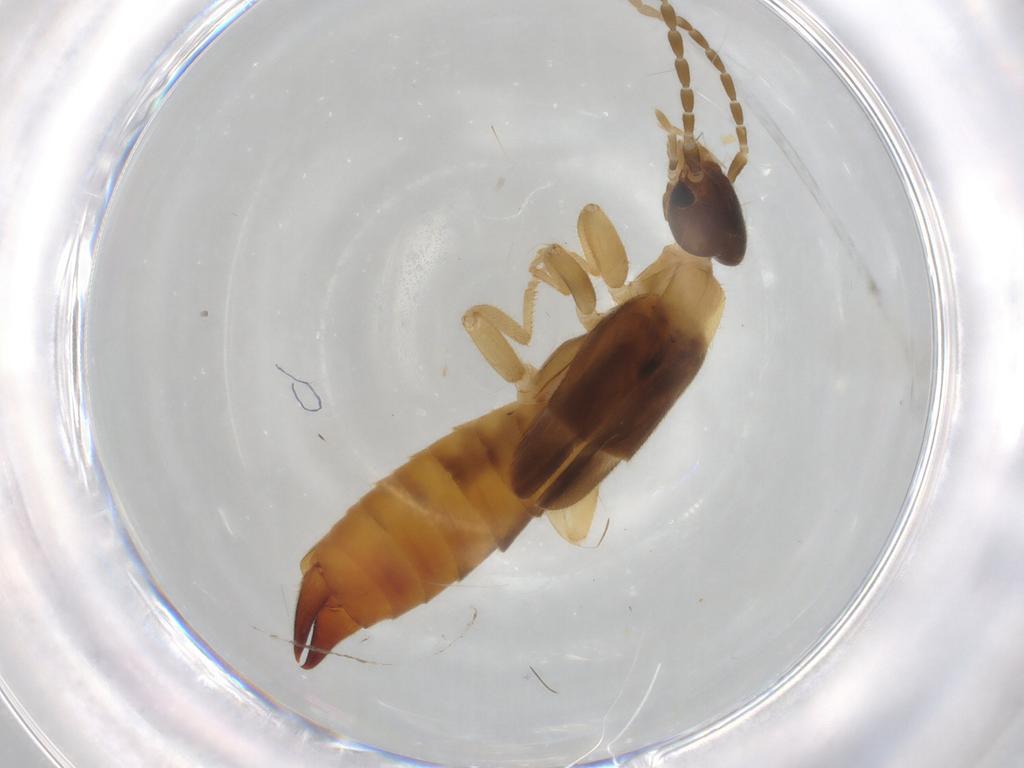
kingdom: Animalia
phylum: Arthropoda
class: Insecta
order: Dermaptera
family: Spongiphoridae
